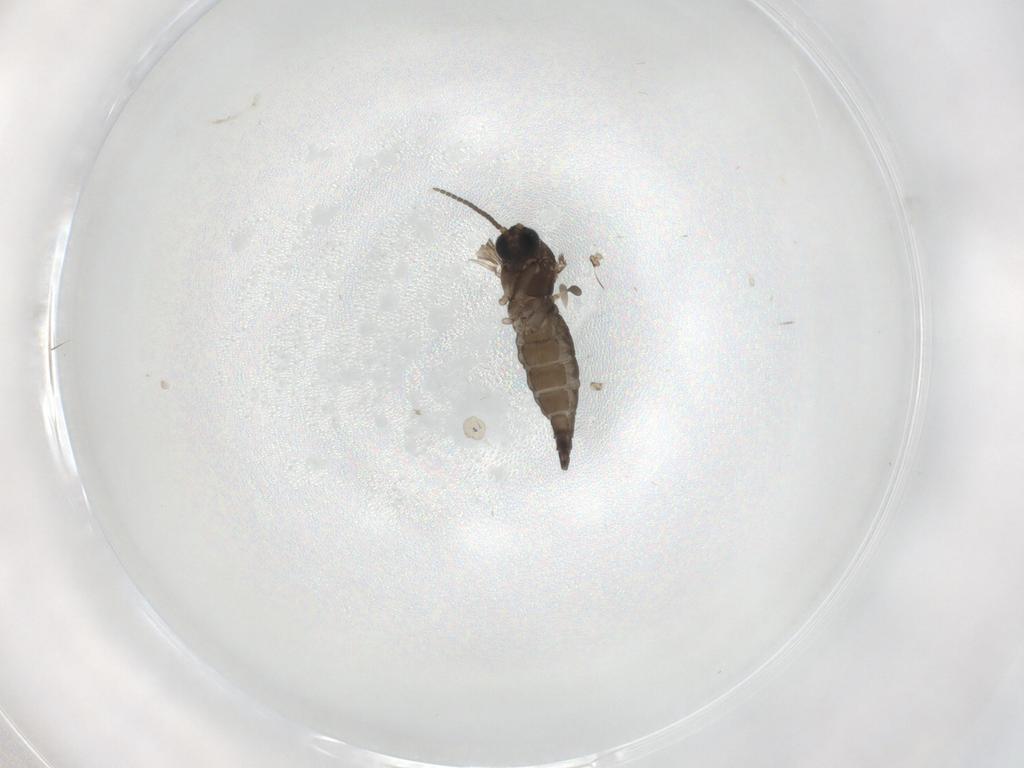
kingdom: Animalia
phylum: Arthropoda
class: Insecta
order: Diptera
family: Sciaridae
